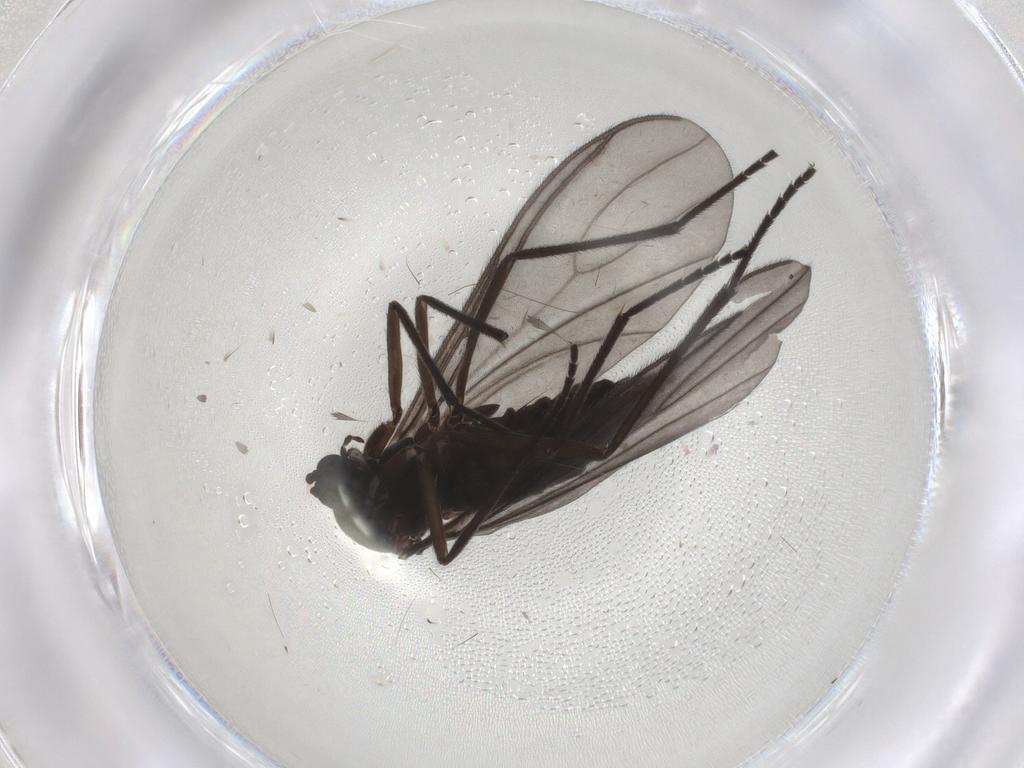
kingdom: Animalia
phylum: Arthropoda
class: Insecta
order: Diptera
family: Sciaridae
